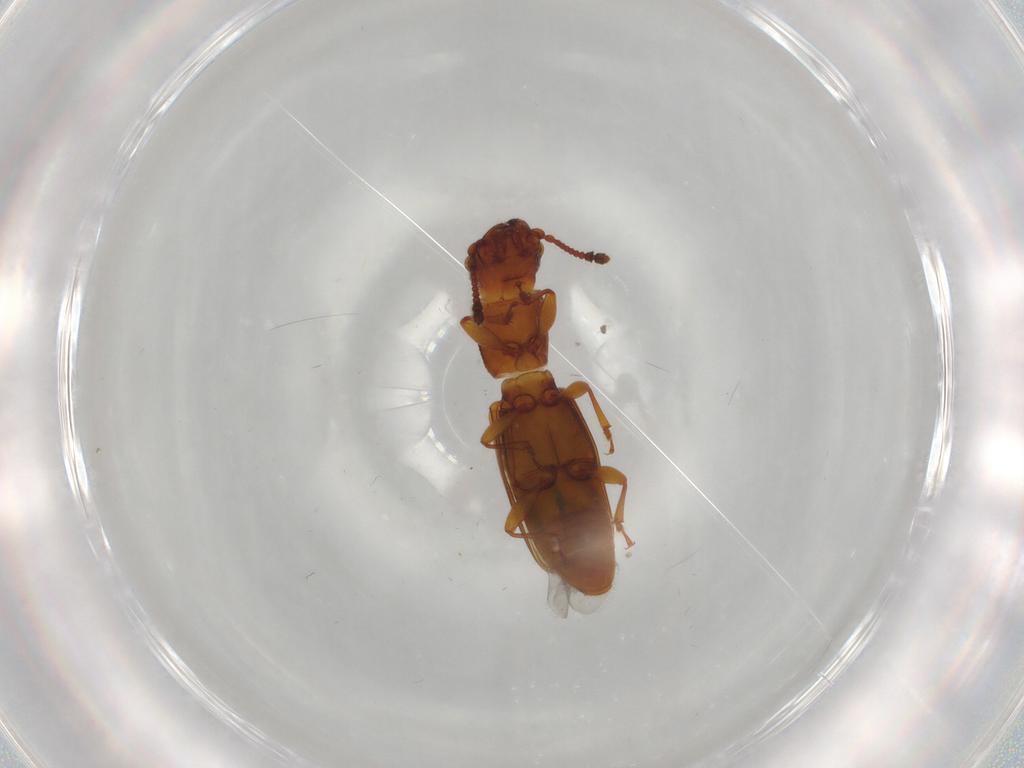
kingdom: Animalia
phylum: Arthropoda
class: Insecta
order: Coleoptera
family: Monotomidae
